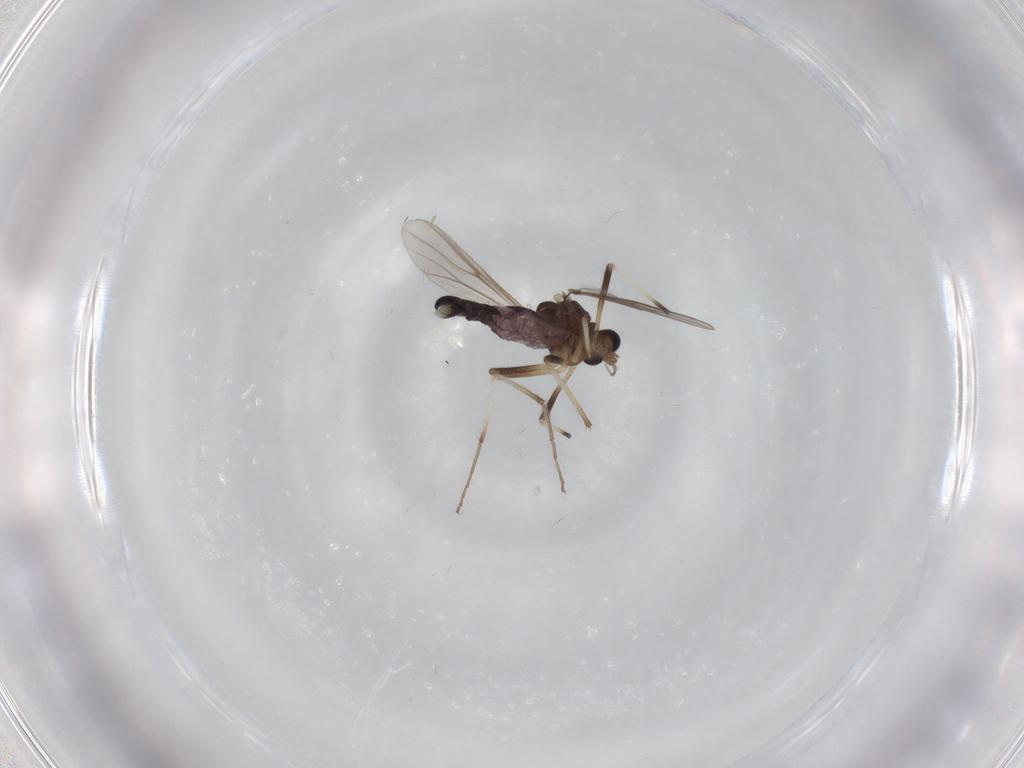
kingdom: Animalia
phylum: Arthropoda
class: Insecta
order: Diptera
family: Chironomidae
